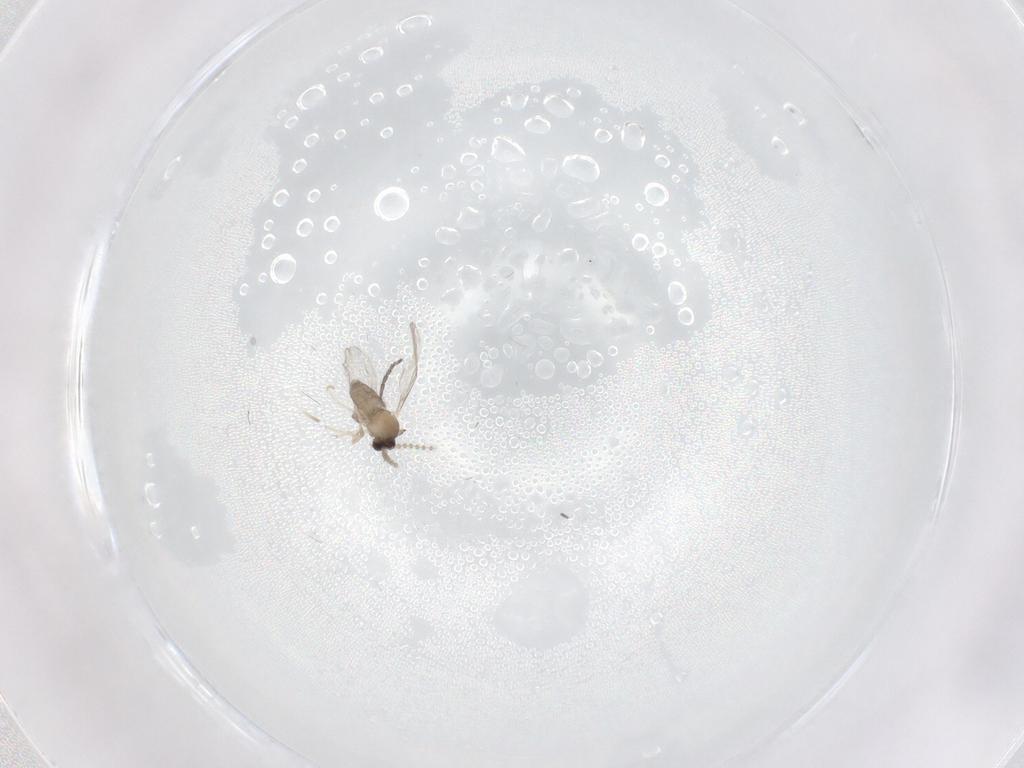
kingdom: Animalia
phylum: Arthropoda
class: Insecta
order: Diptera
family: Cecidomyiidae
